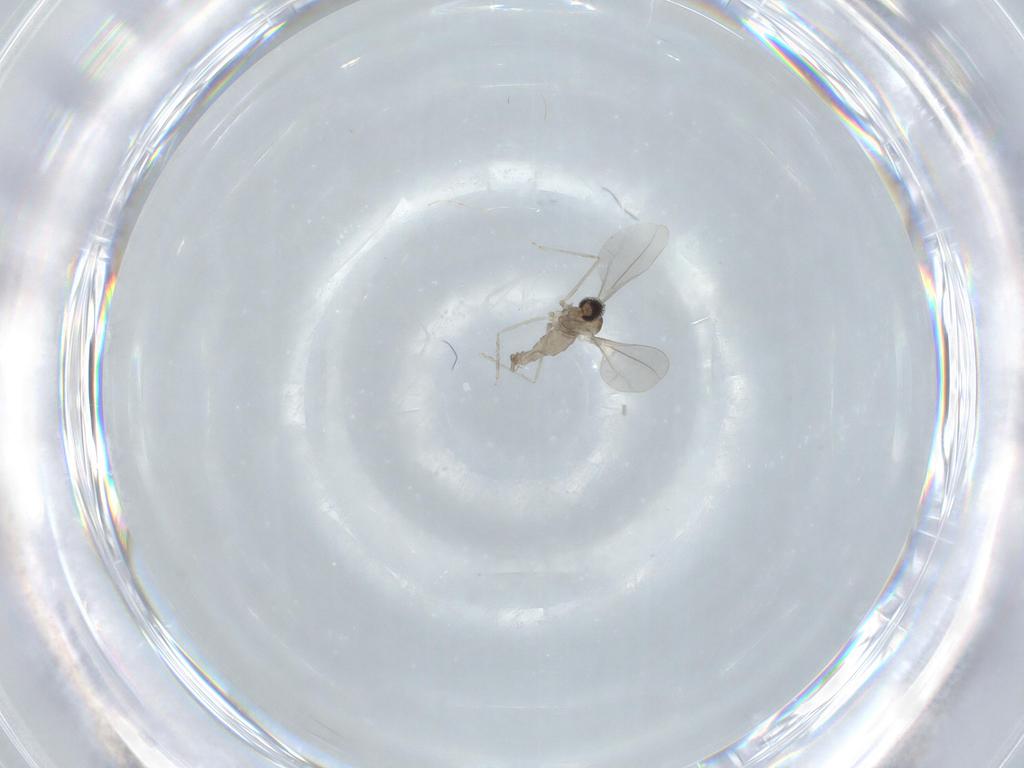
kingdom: Animalia
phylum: Arthropoda
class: Insecta
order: Diptera
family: Cecidomyiidae
